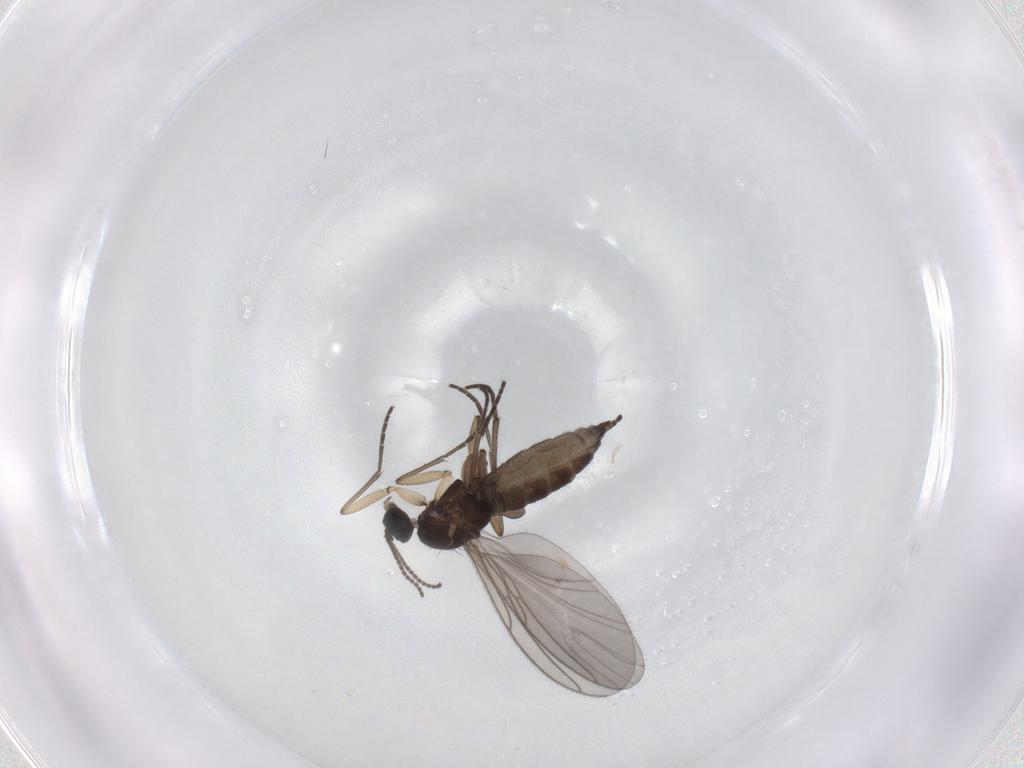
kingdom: Animalia
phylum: Arthropoda
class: Insecta
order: Diptera
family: Sciaridae
